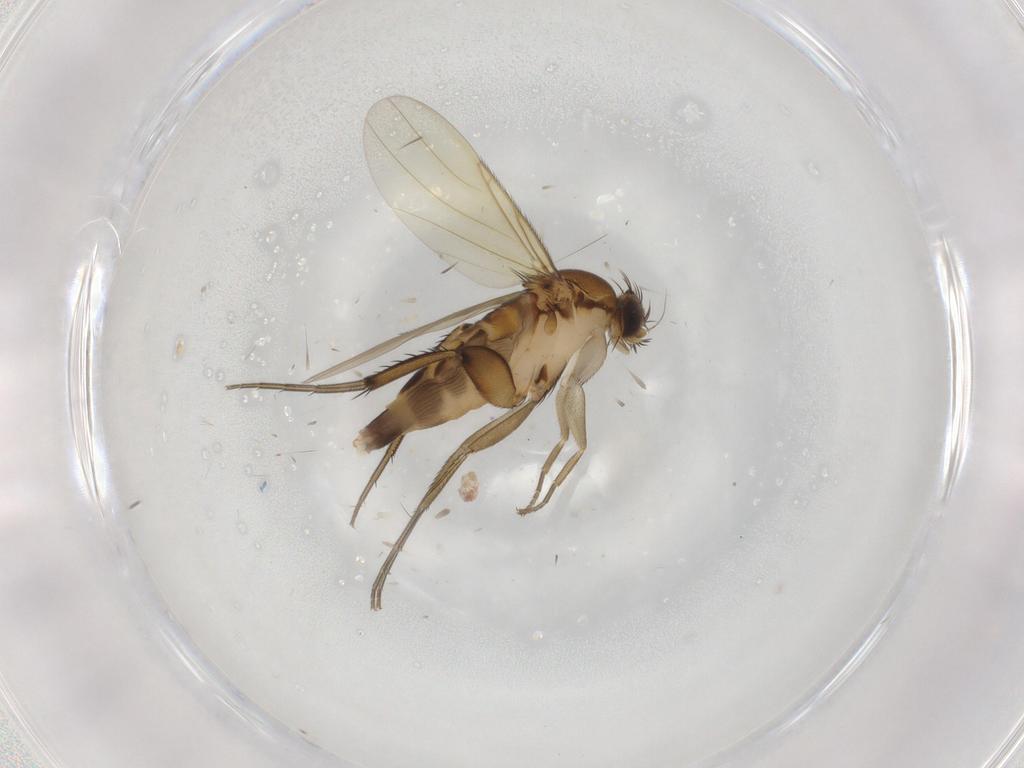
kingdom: Animalia
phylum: Arthropoda
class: Insecta
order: Diptera
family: Phoridae
